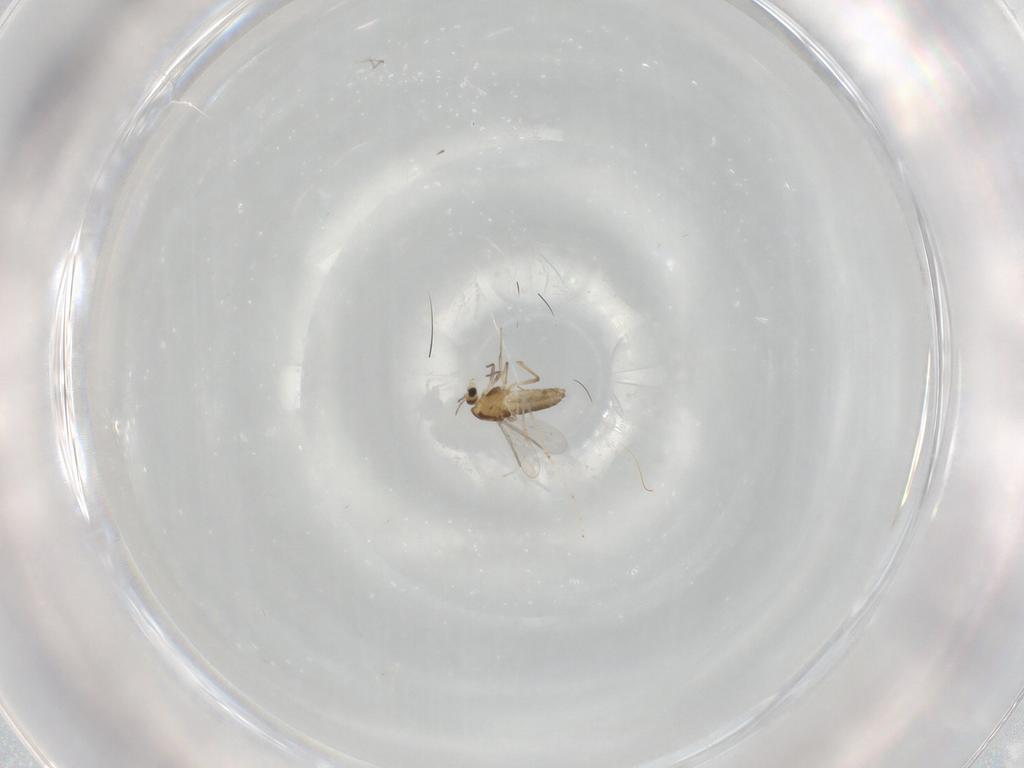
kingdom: Animalia
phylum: Arthropoda
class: Insecta
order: Diptera
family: Chironomidae
